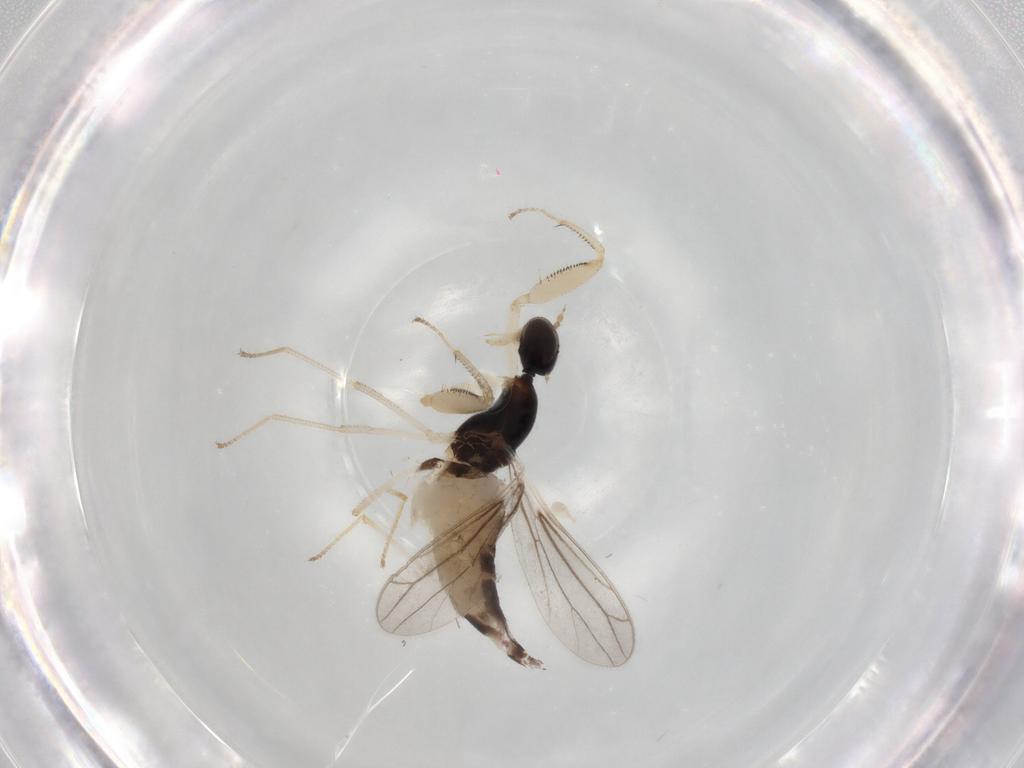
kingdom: Animalia
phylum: Arthropoda
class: Insecta
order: Diptera
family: Empididae
